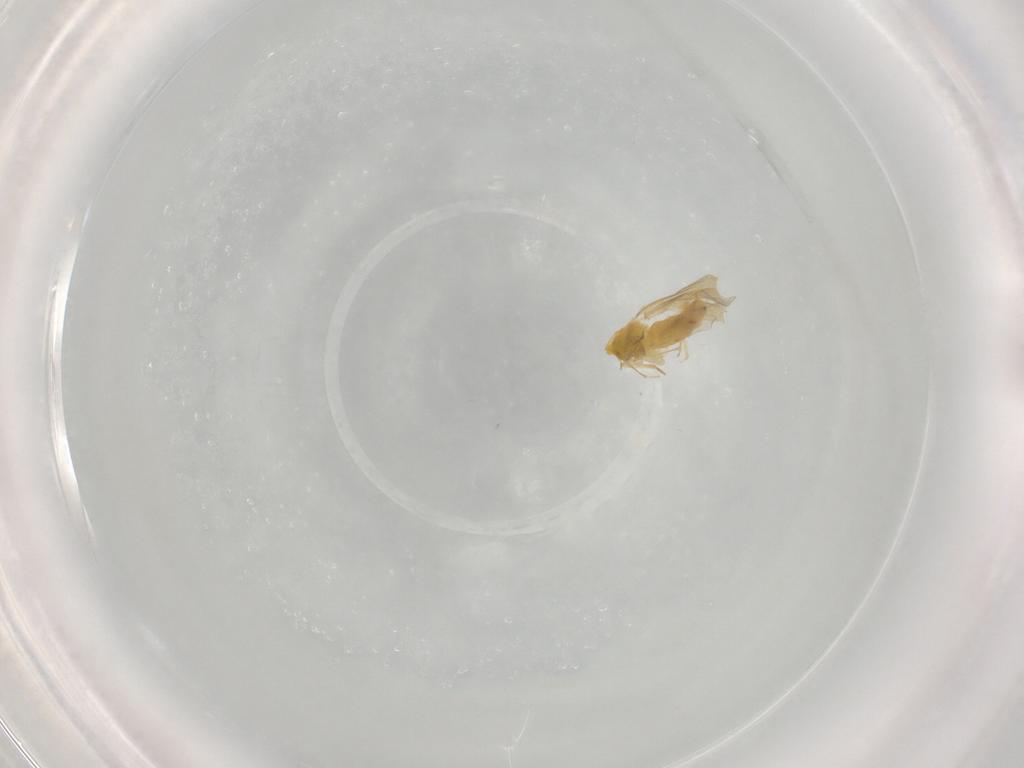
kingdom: Animalia
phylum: Arthropoda
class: Insecta
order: Hemiptera
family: Aleyrodidae
